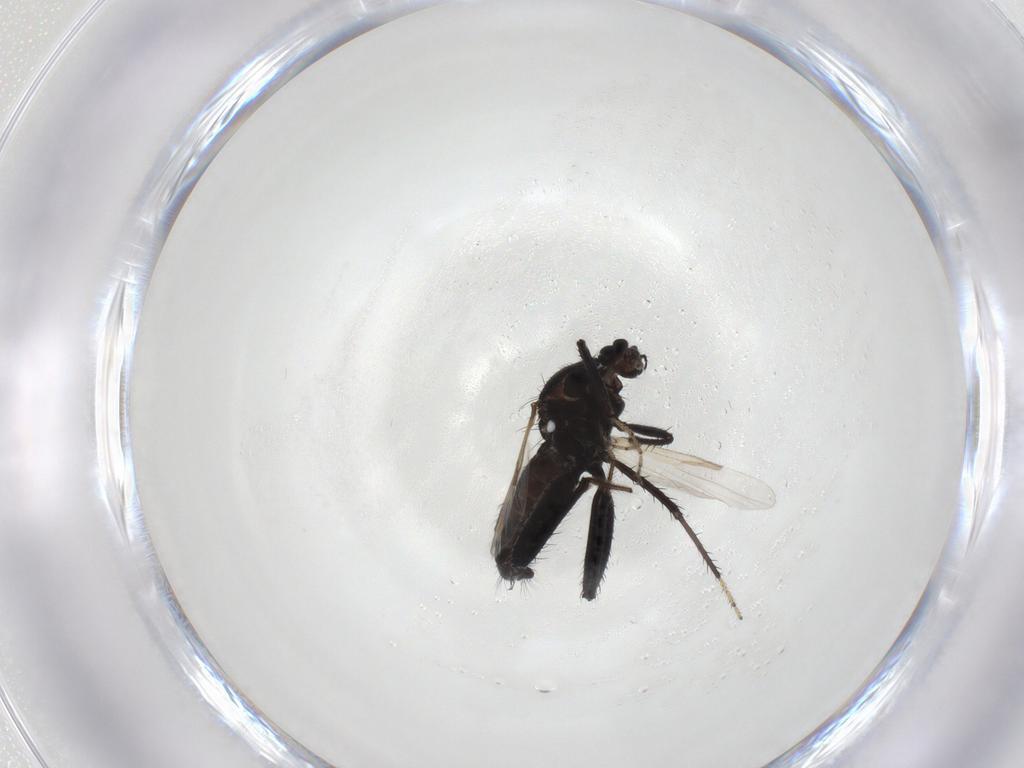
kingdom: Animalia
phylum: Arthropoda
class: Insecta
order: Diptera
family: Ceratopogonidae
